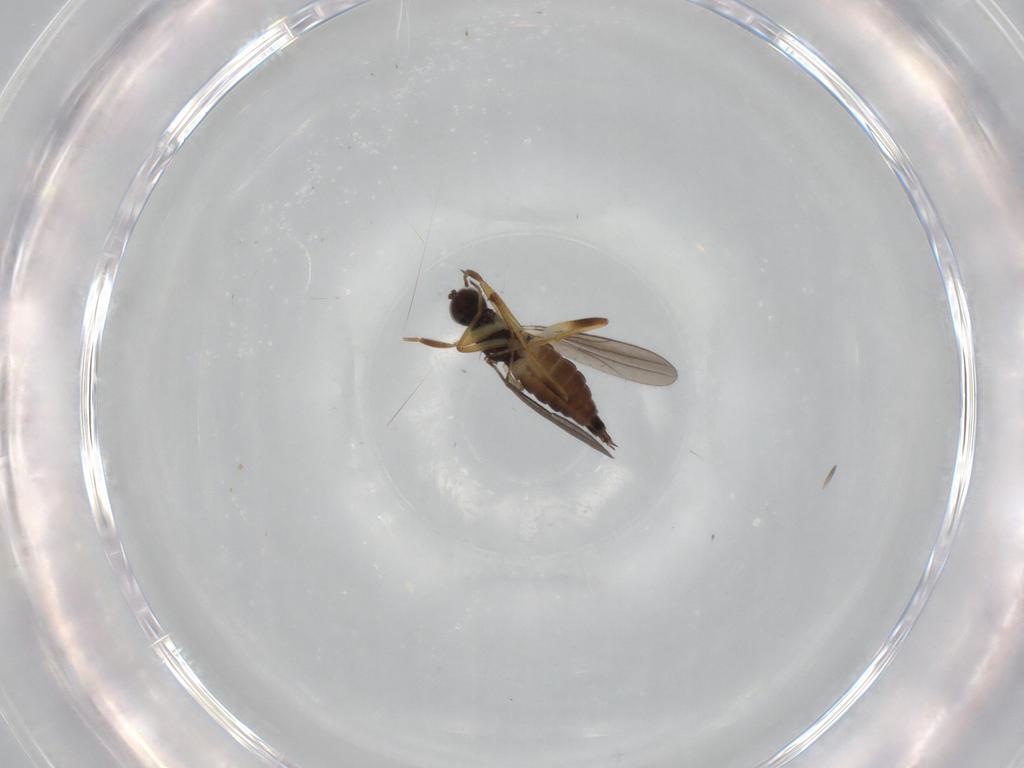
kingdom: Animalia
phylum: Arthropoda
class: Insecta
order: Diptera
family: Hybotidae
